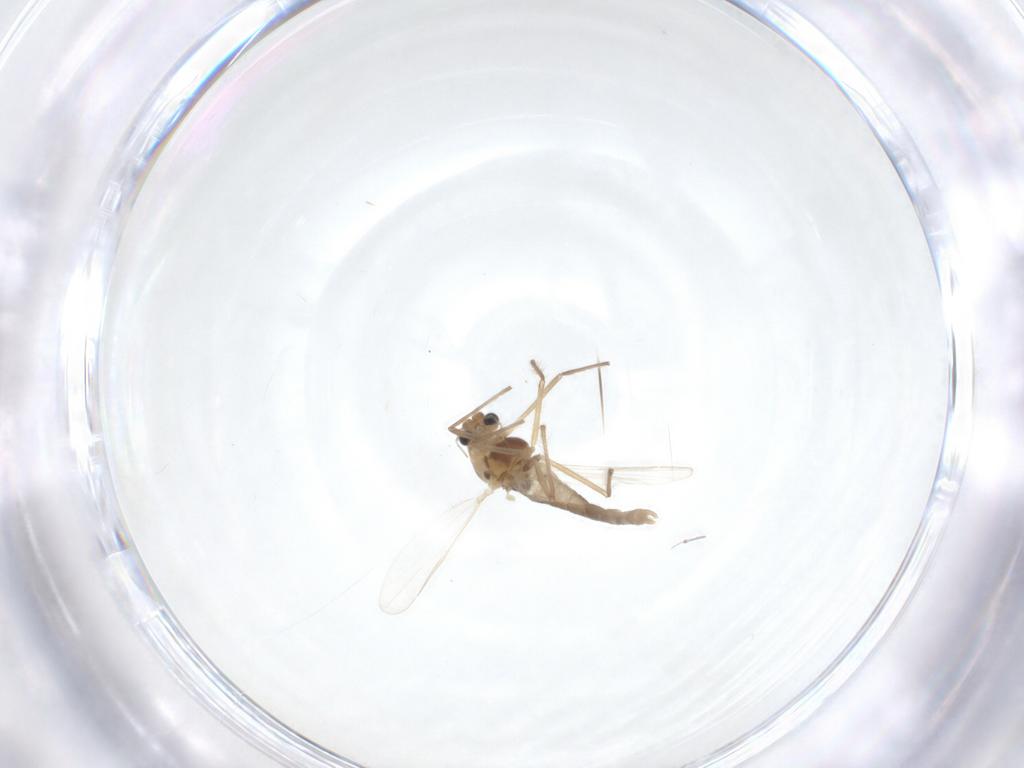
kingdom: Animalia
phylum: Arthropoda
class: Insecta
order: Diptera
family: Chironomidae
